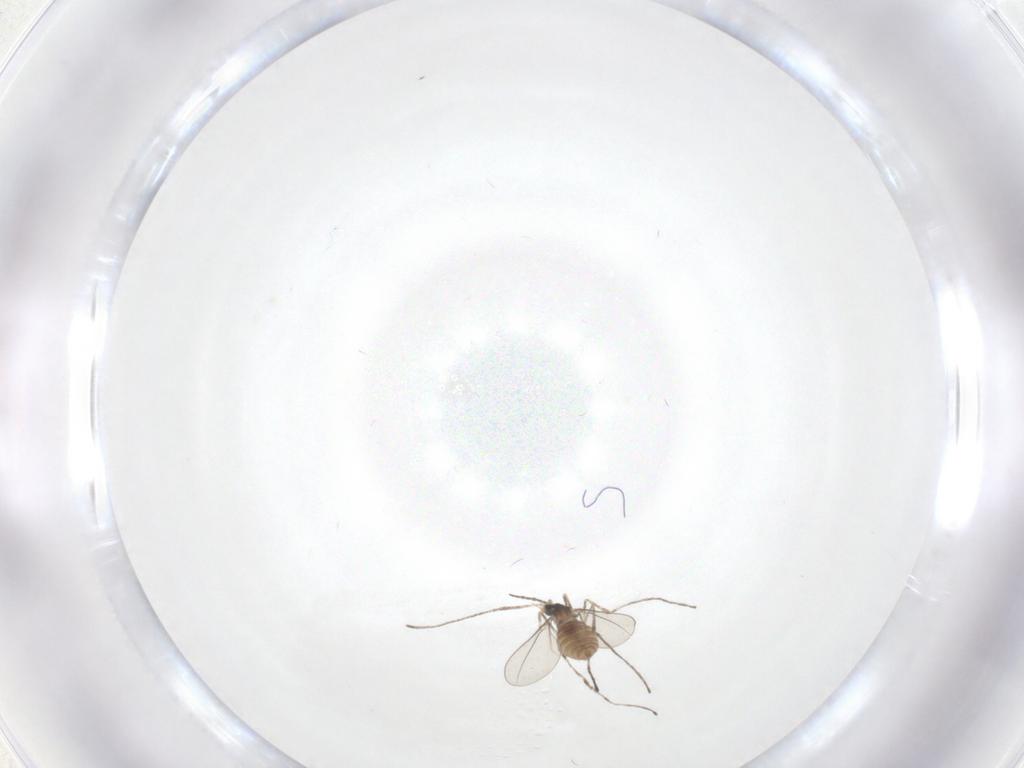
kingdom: Animalia
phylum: Arthropoda
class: Insecta
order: Diptera
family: Cecidomyiidae
